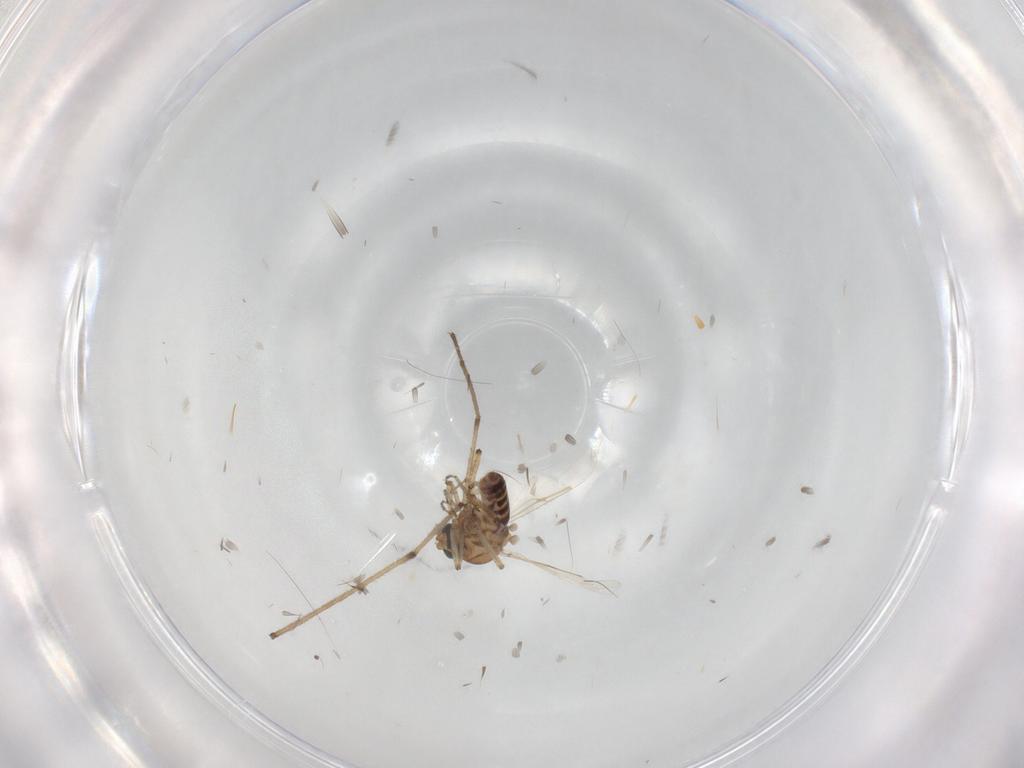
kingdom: Animalia
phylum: Arthropoda
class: Insecta
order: Diptera
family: Ceratopogonidae
